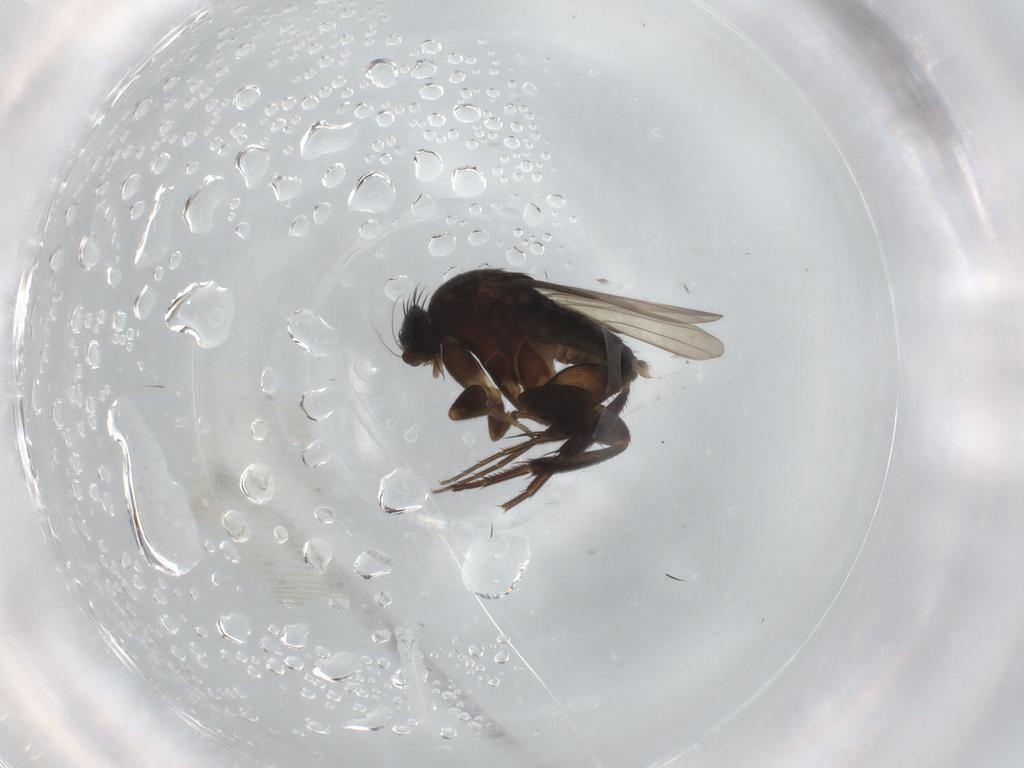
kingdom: Animalia
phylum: Arthropoda
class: Insecta
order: Diptera
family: Phoridae
